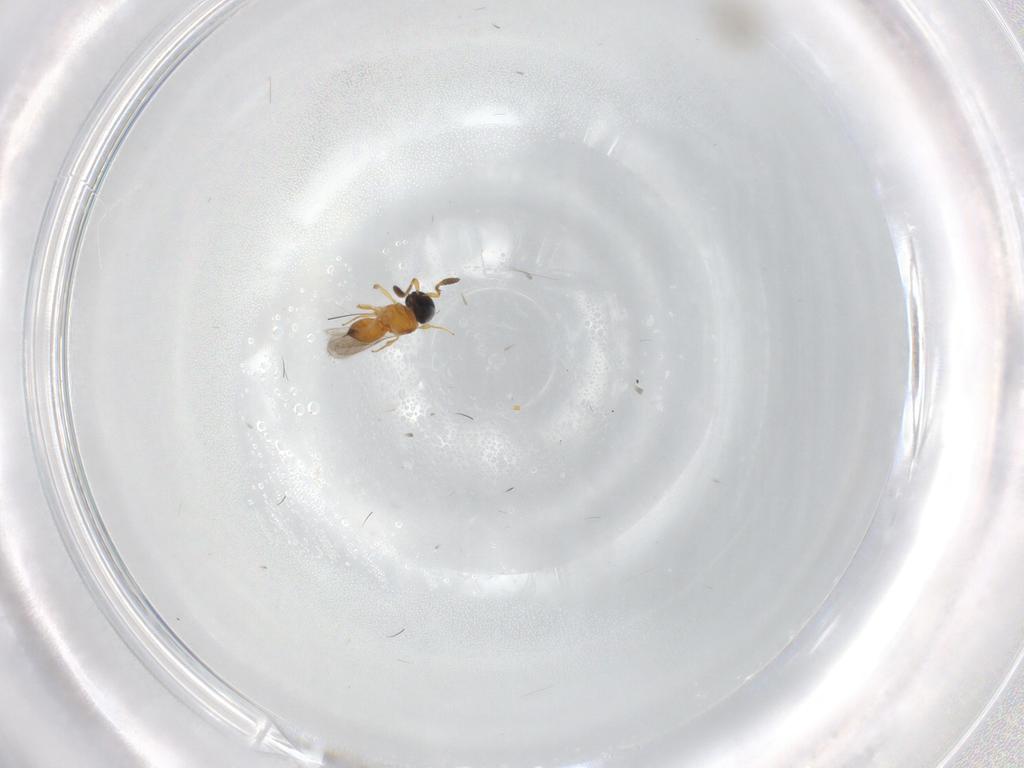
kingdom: Animalia
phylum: Arthropoda
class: Insecta
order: Hymenoptera
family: Scelionidae
